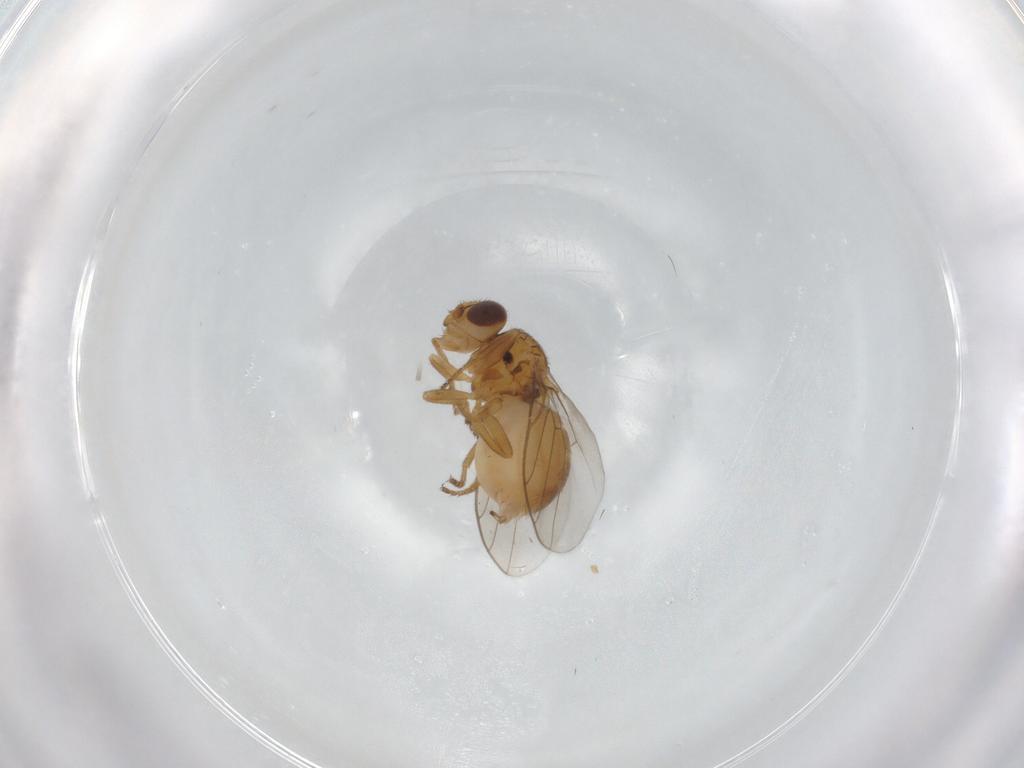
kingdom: Animalia
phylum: Arthropoda
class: Insecta
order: Diptera
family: Chloropidae
